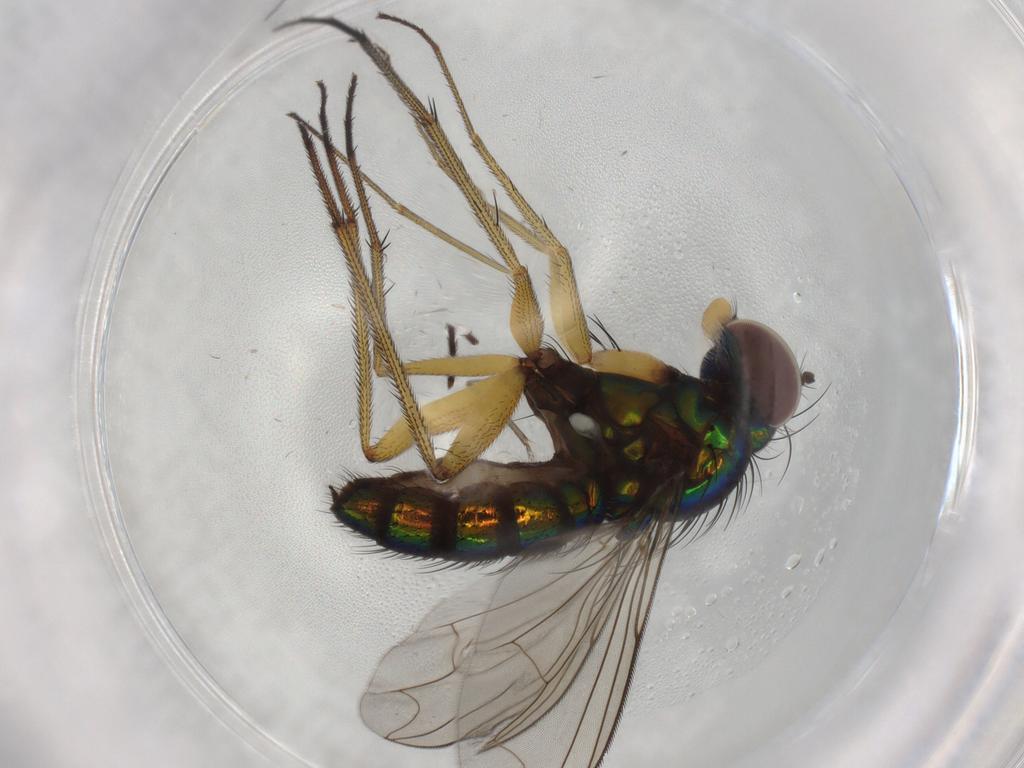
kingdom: Animalia
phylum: Arthropoda
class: Insecta
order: Diptera
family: Dolichopodidae
